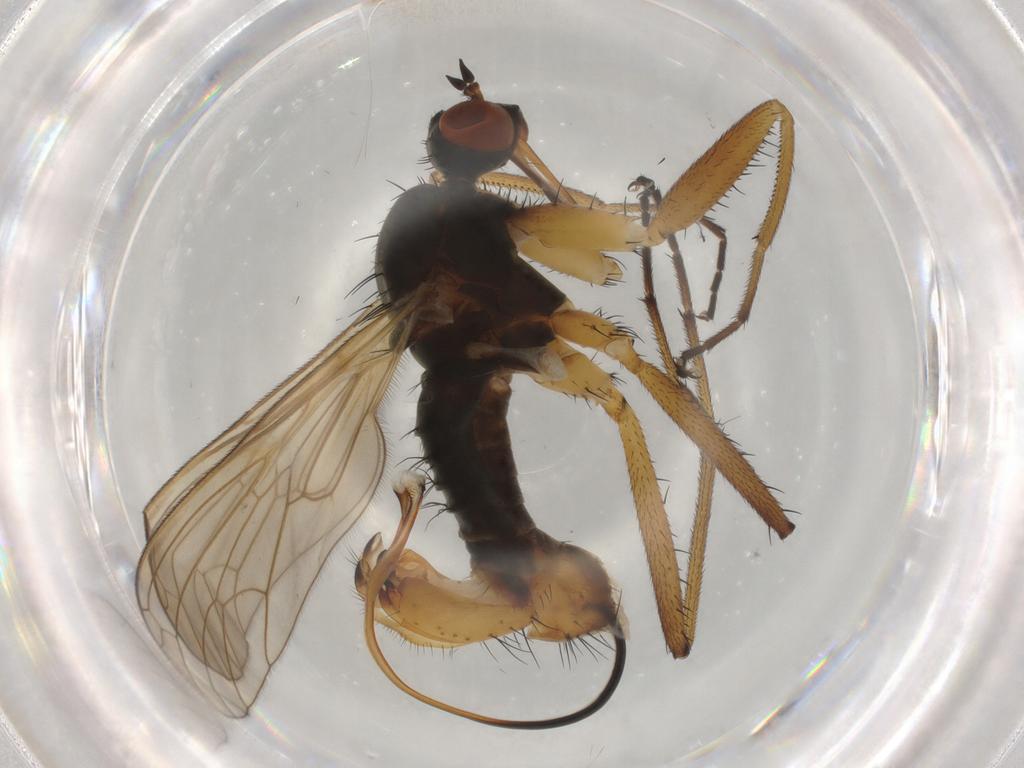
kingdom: Animalia
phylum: Arthropoda
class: Insecta
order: Diptera
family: Empididae
